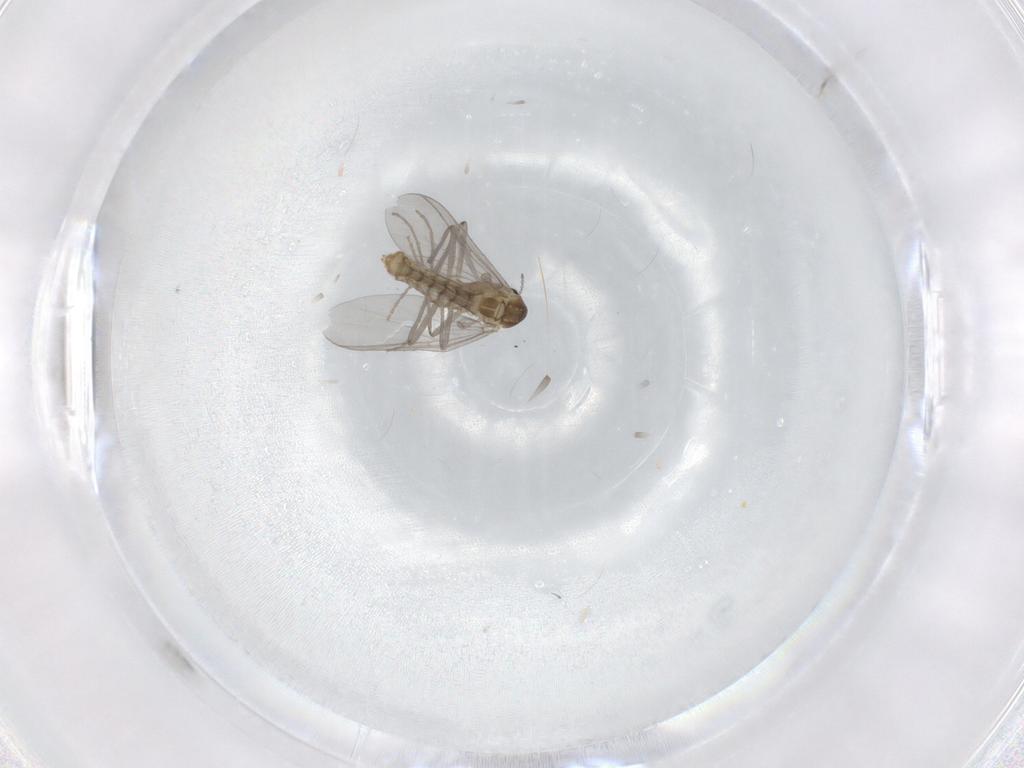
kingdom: Animalia
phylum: Arthropoda
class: Insecta
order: Diptera
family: Chironomidae
